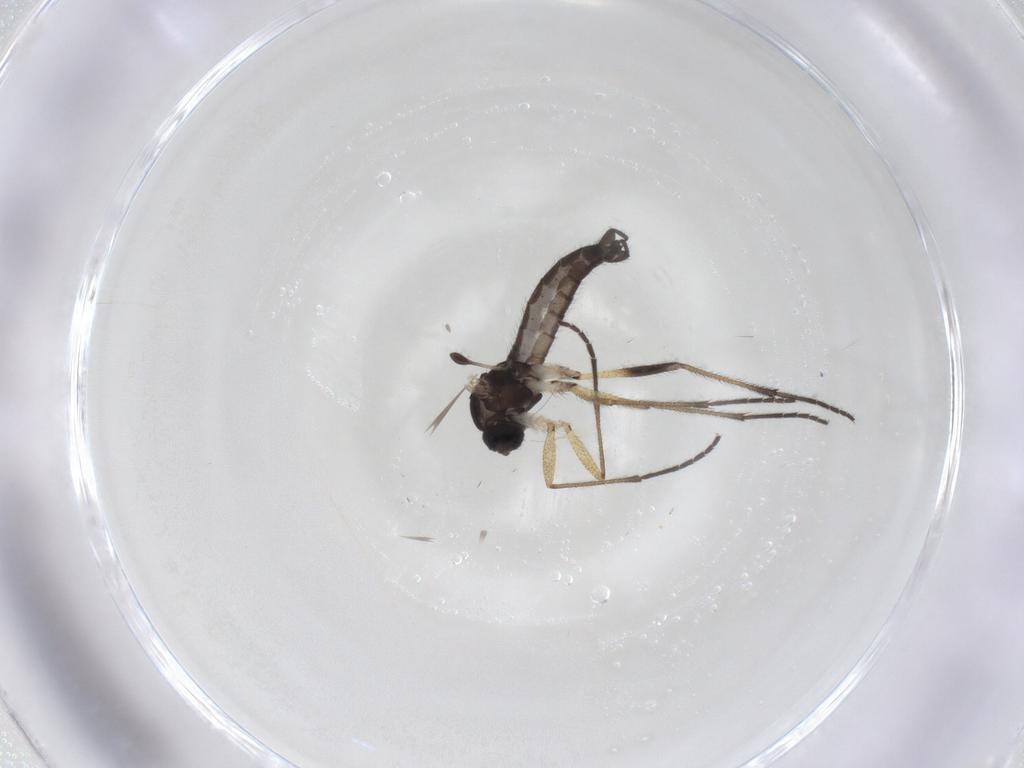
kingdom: Animalia
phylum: Arthropoda
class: Insecta
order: Diptera
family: Sciaridae
